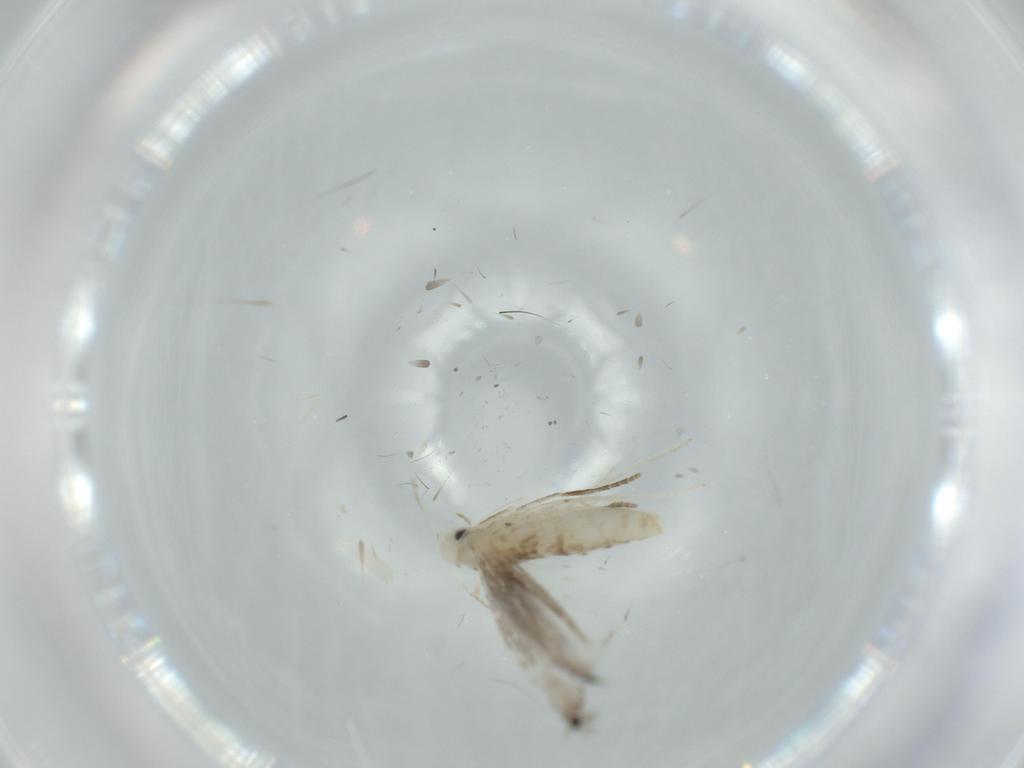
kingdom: Animalia
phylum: Arthropoda
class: Insecta
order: Lepidoptera
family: Gracillariidae
